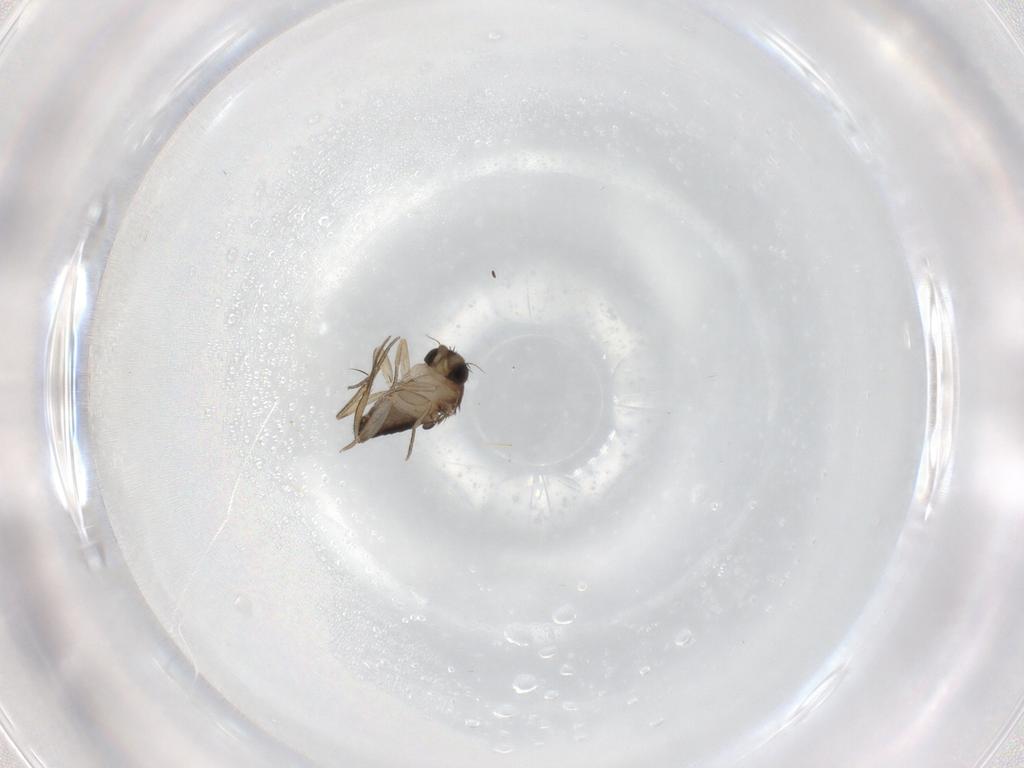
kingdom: Animalia
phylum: Arthropoda
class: Insecta
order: Diptera
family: Phoridae
